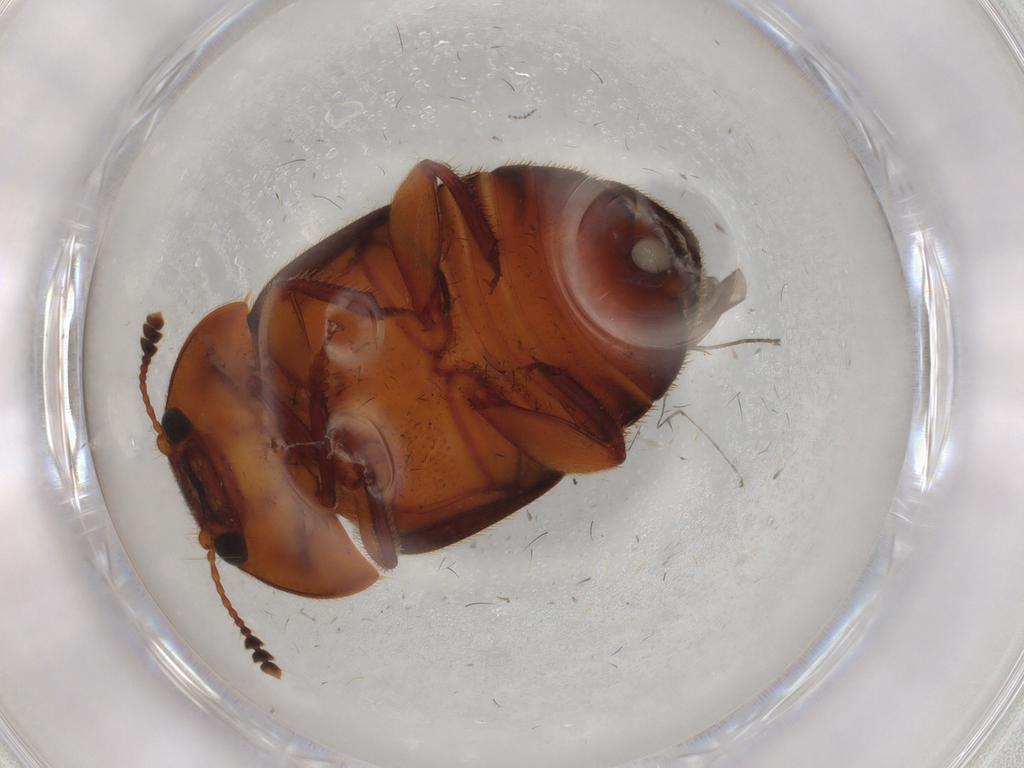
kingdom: Animalia
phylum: Arthropoda
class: Insecta
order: Coleoptera
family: Nitidulidae
